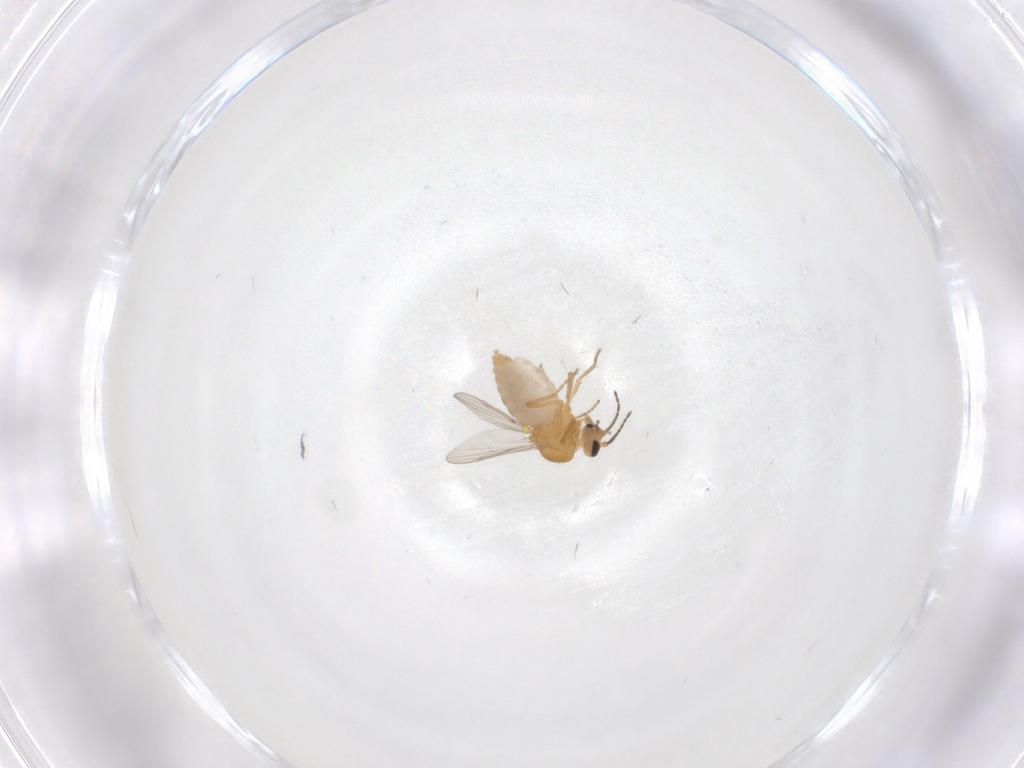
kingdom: Animalia
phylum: Arthropoda
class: Insecta
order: Diptera
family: Ceratopogonidae
